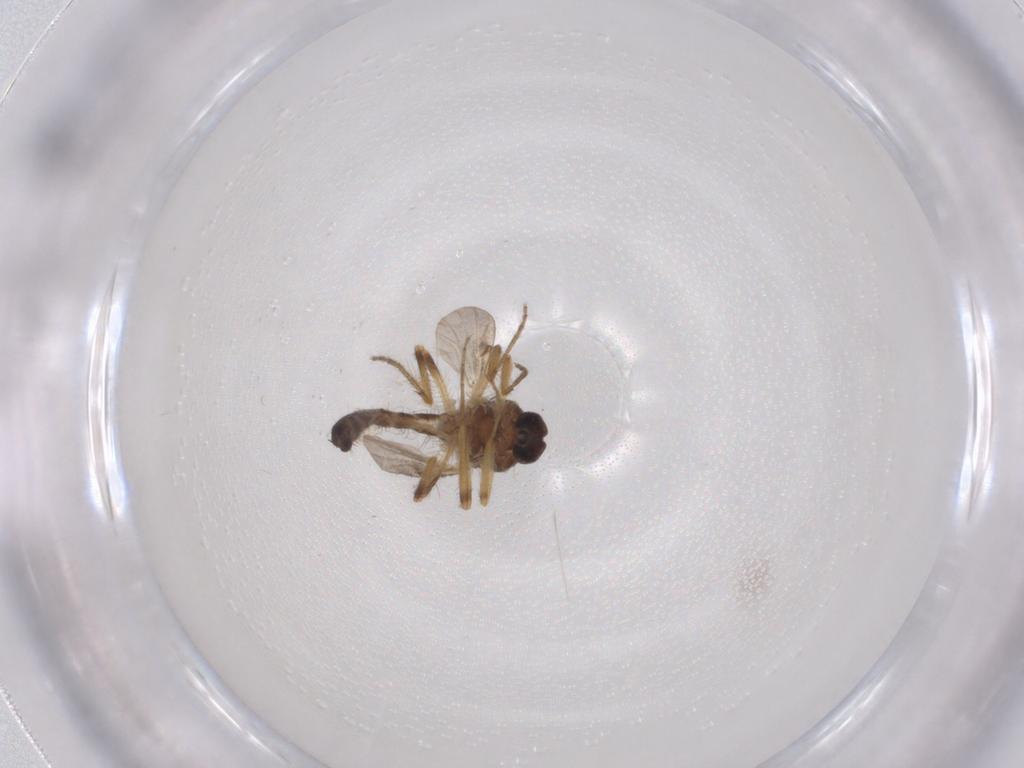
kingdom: Animalia
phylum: Arthropoda
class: Insecta
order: Diptera
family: Ceratopogonidae
